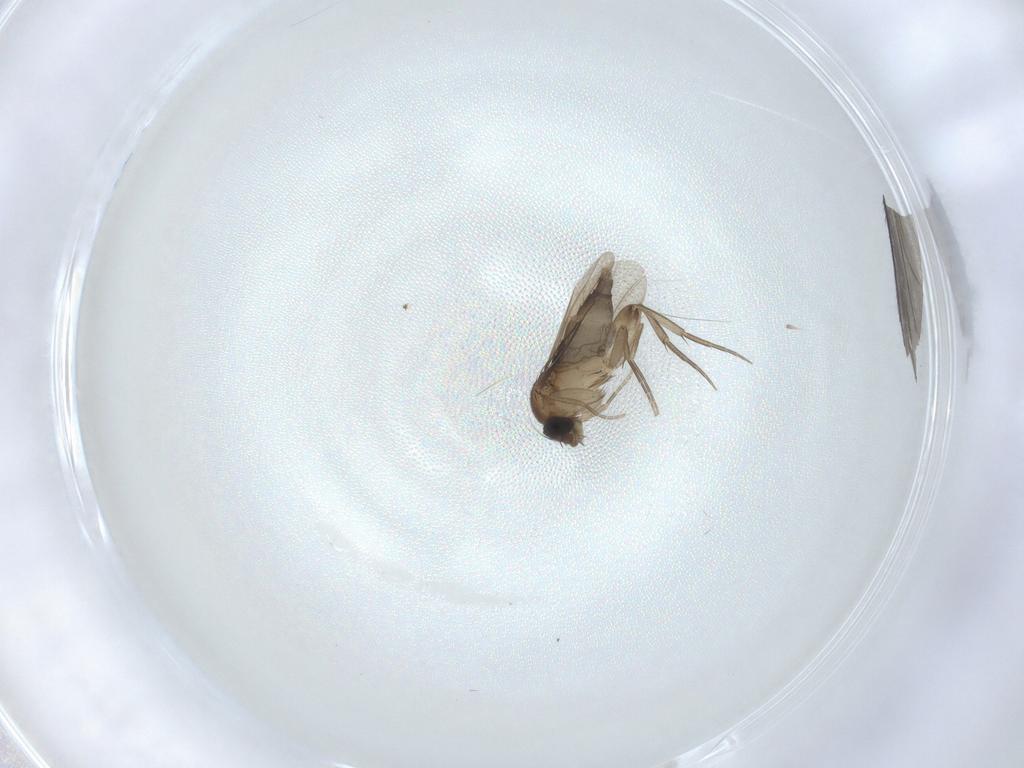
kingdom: Animalia
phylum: Arthropoda
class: Insecta
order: Diptera
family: Phoridae
